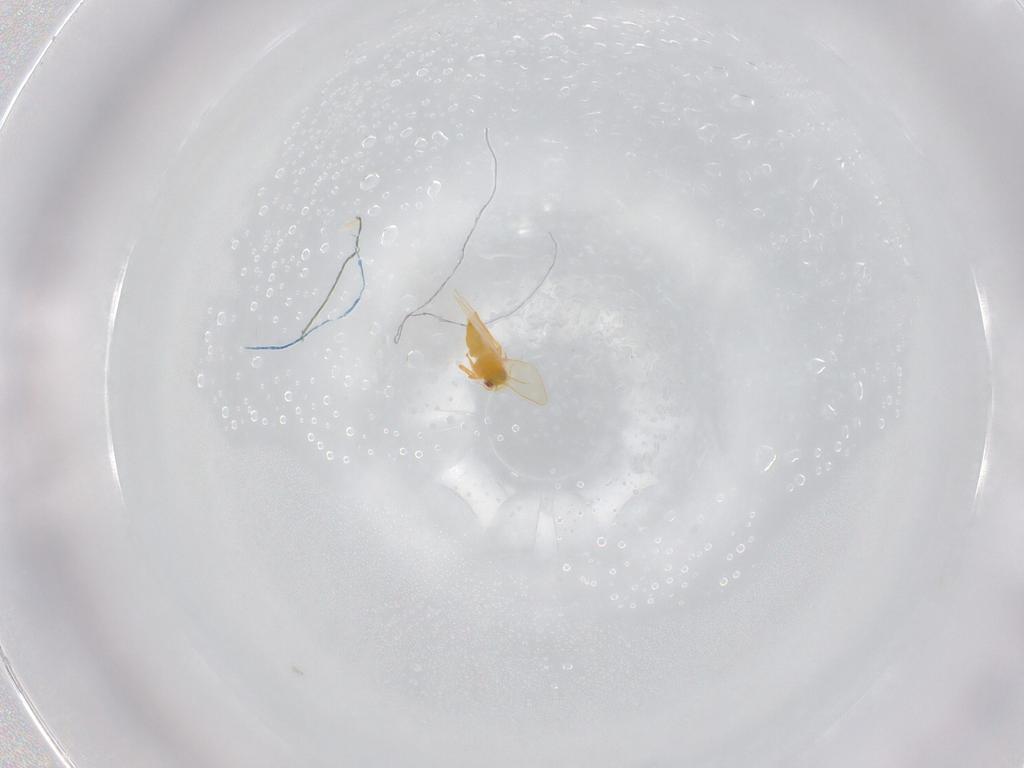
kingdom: Animalia
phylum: Arthropoda
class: Insecta
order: Hemiptera
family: Aleyrodidae
